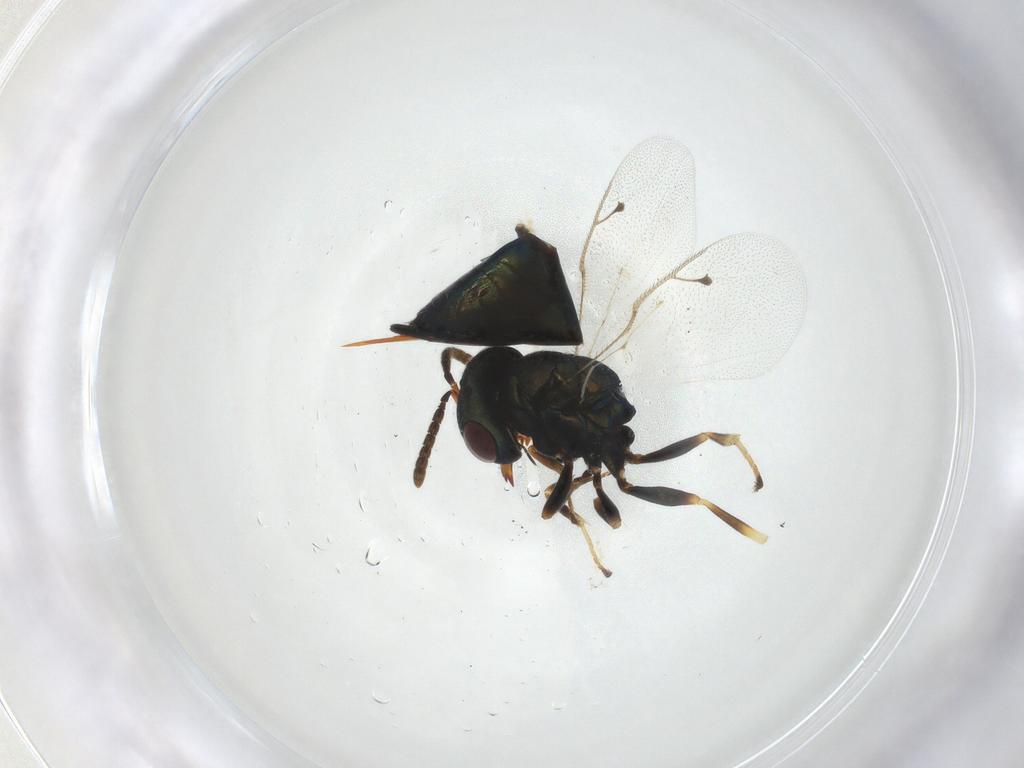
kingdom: Animalia
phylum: Arthropoda
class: Insecta
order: Hymenoptera
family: Pteromalidae
